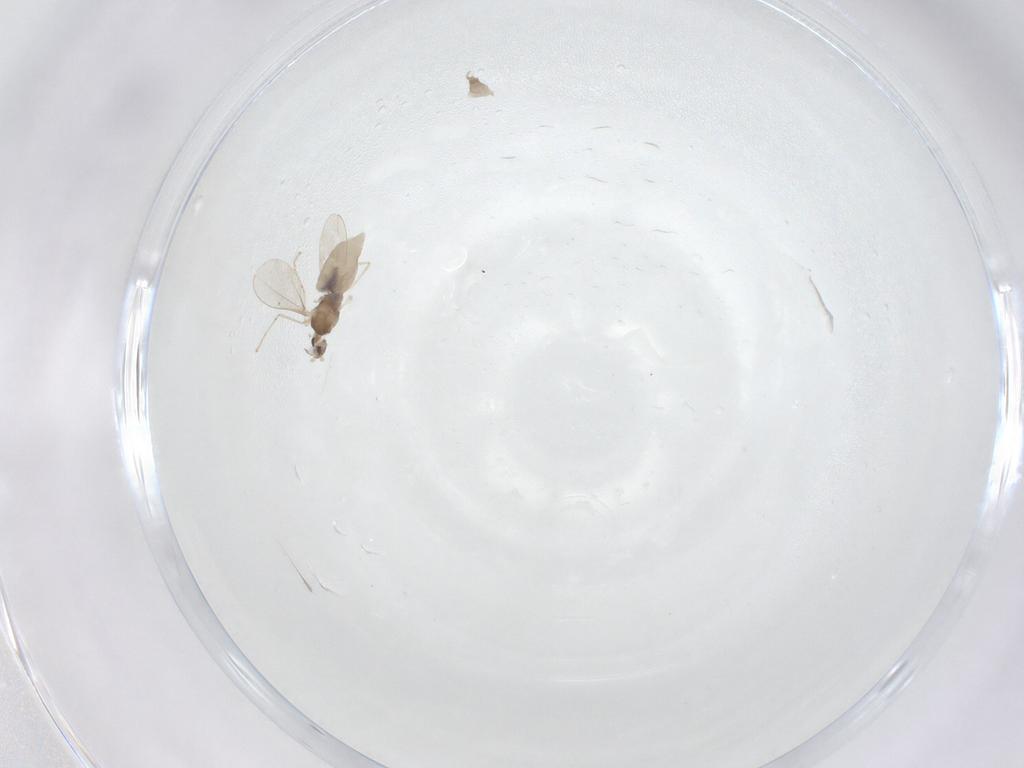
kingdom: Animalia
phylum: Arthropoda
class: Insecta
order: Diptera
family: Cecidomyiidae
